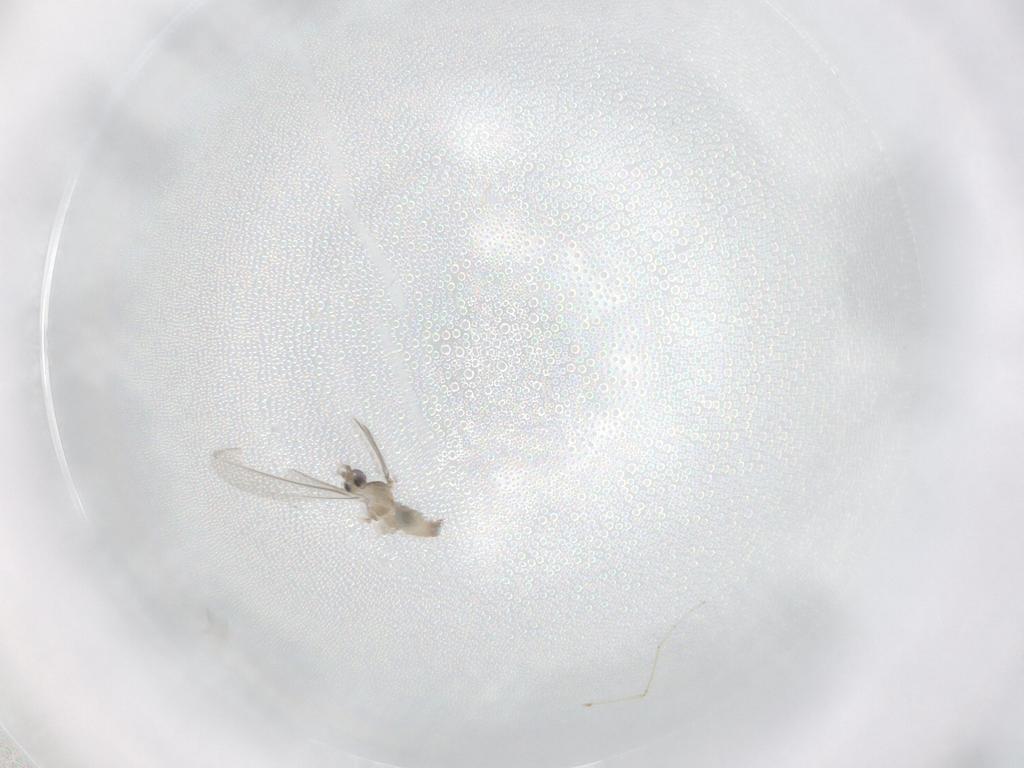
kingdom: Animalia
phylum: Arthropoda
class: Insecta
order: Diptera
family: Cecidomyiidae
